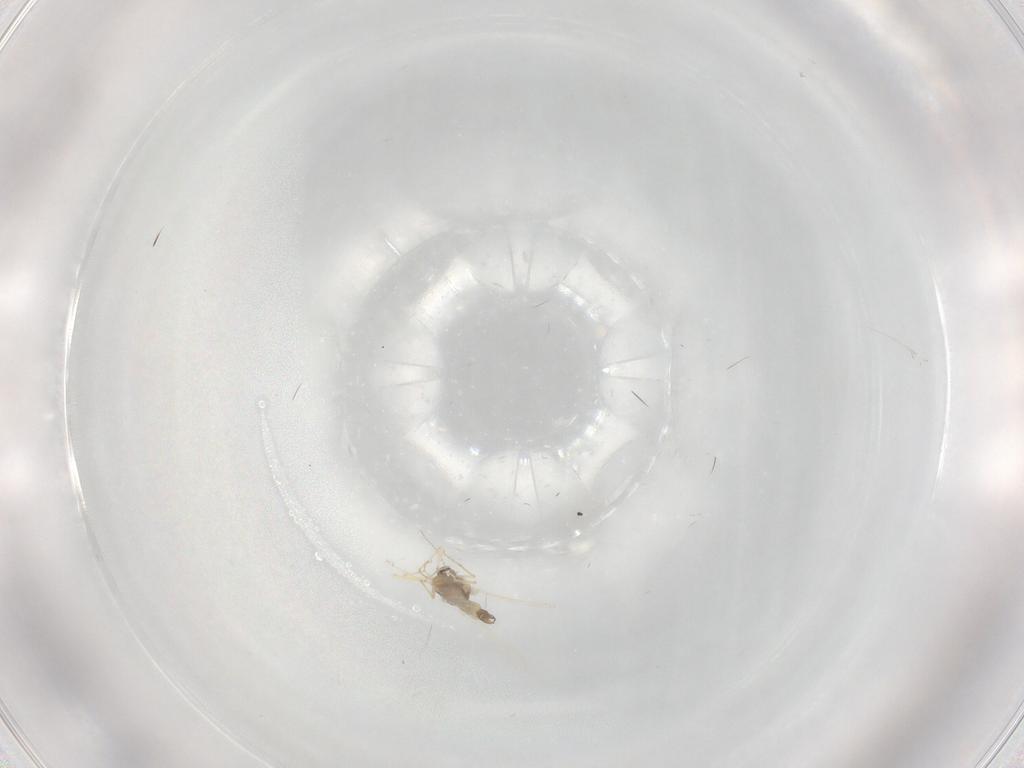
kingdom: Animalia
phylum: Arthropoda
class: Insecta
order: Diptera
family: Chironomidae
